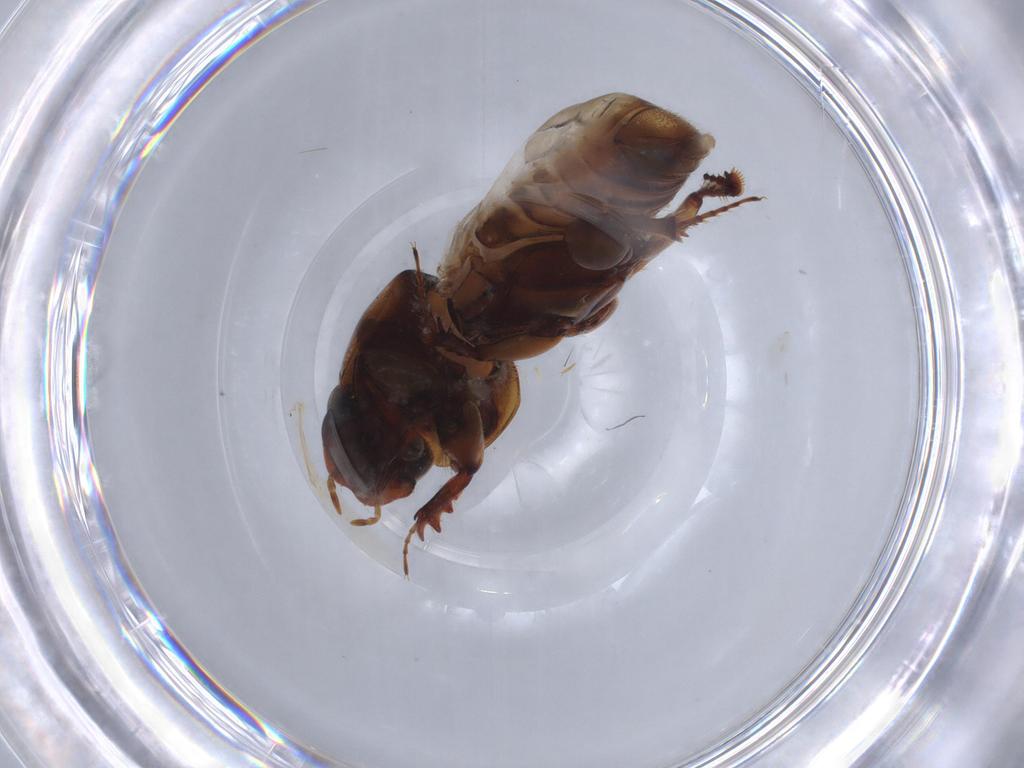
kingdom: Animalia
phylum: Arthropoda
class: Insecta
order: Coleoptera
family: Scarabaeidae
